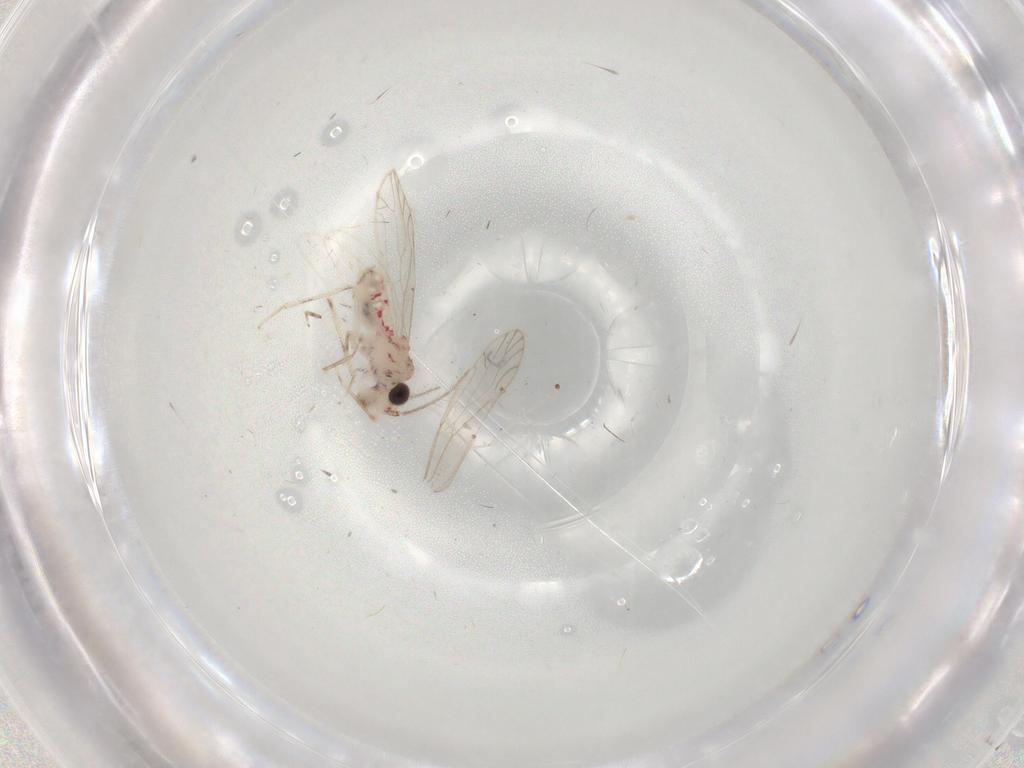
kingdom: Animalia
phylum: Arthropoda
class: Insecta
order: Psocodea
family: Caeciliusidae
